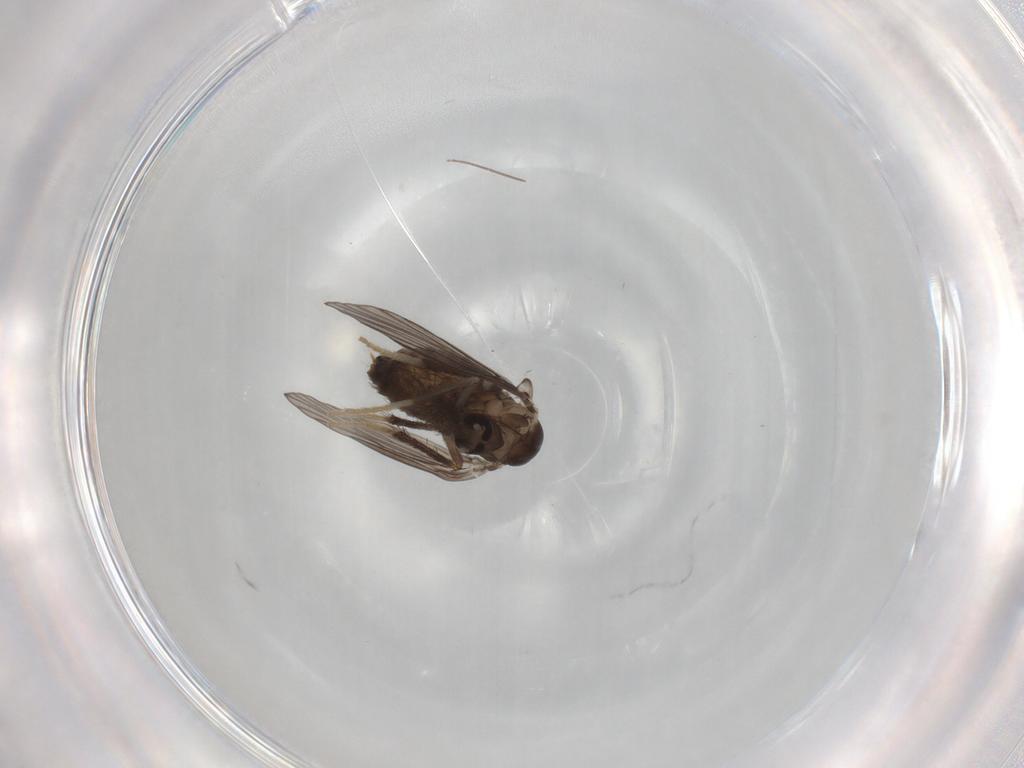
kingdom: Animalia
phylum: Arthropoda
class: Insecta
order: Diptera
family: Psychodidae
